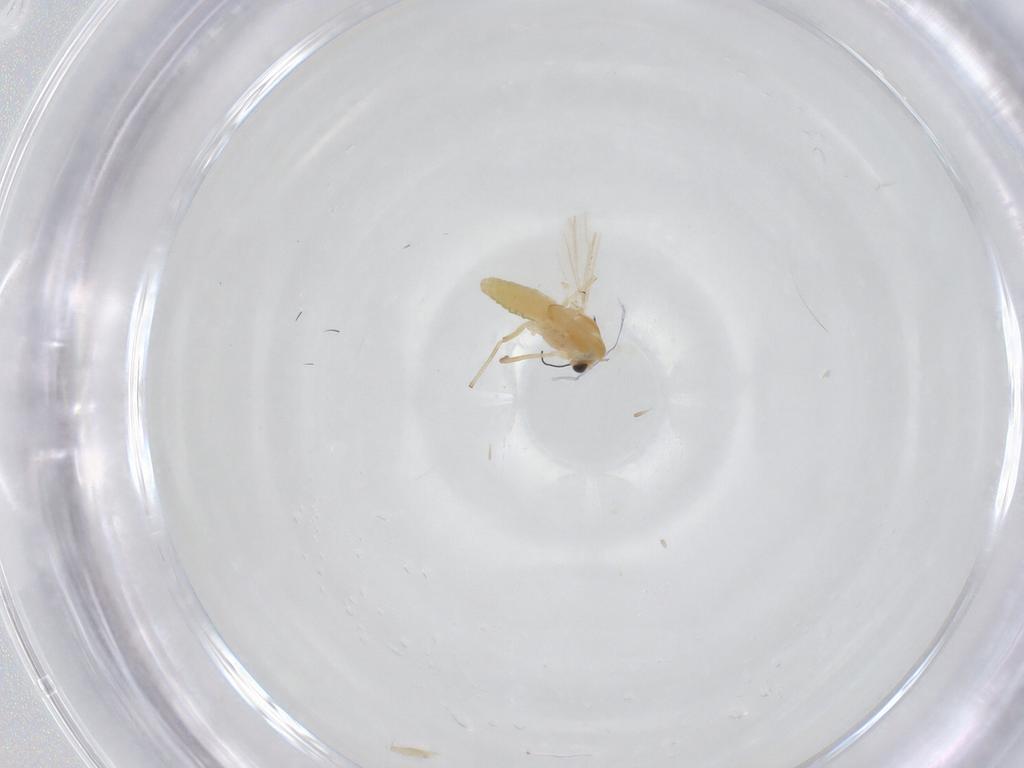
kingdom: Animalia
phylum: Arthropoda
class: Insecta
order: Diptera
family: Chironomidae
